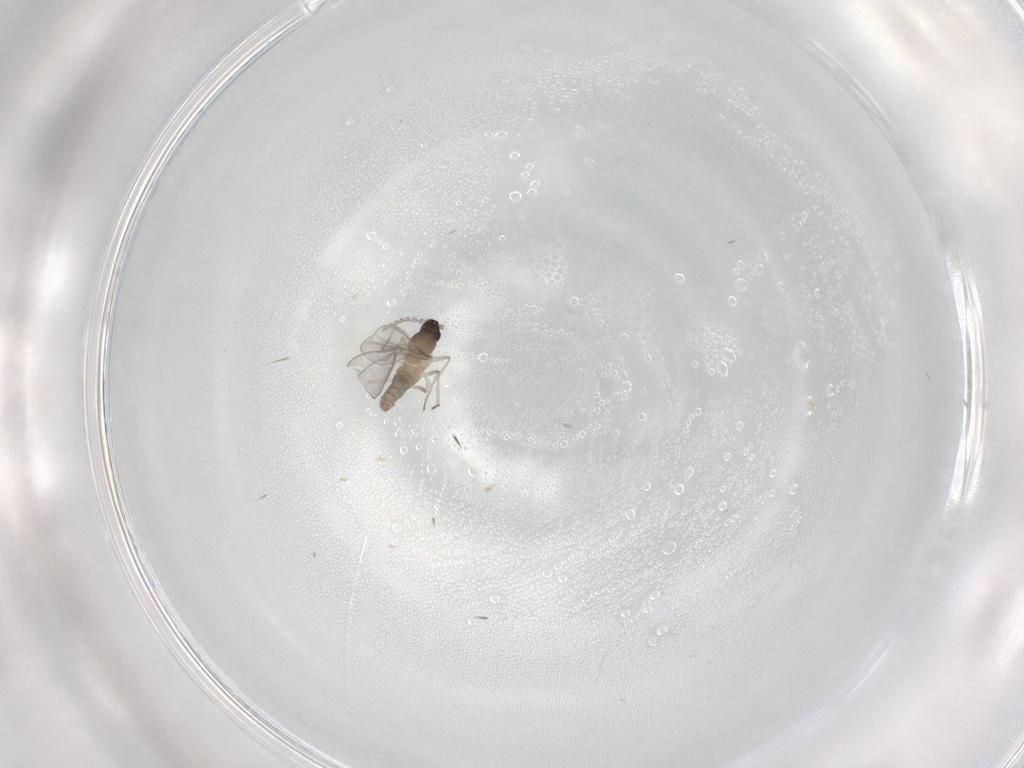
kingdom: Animalia
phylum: Arthropoda
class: Insecta
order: Diptera
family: Cecidomyiidae
